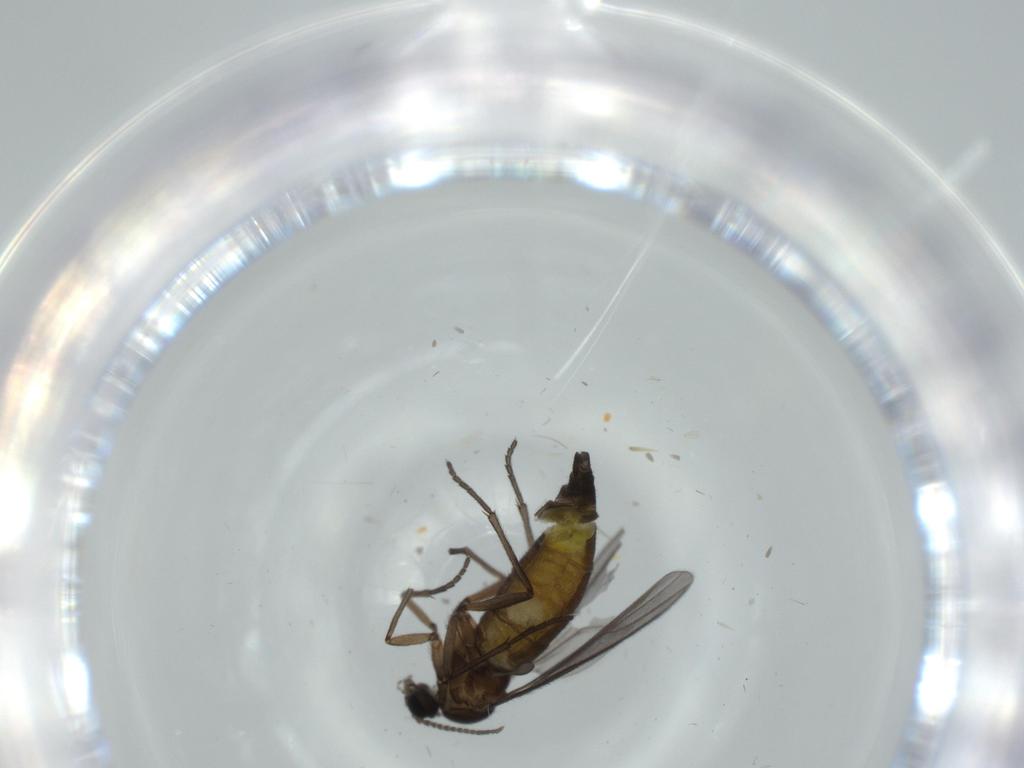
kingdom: Animalia
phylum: Arthropoda
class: Insecta
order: Diptera
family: Sciaridae
